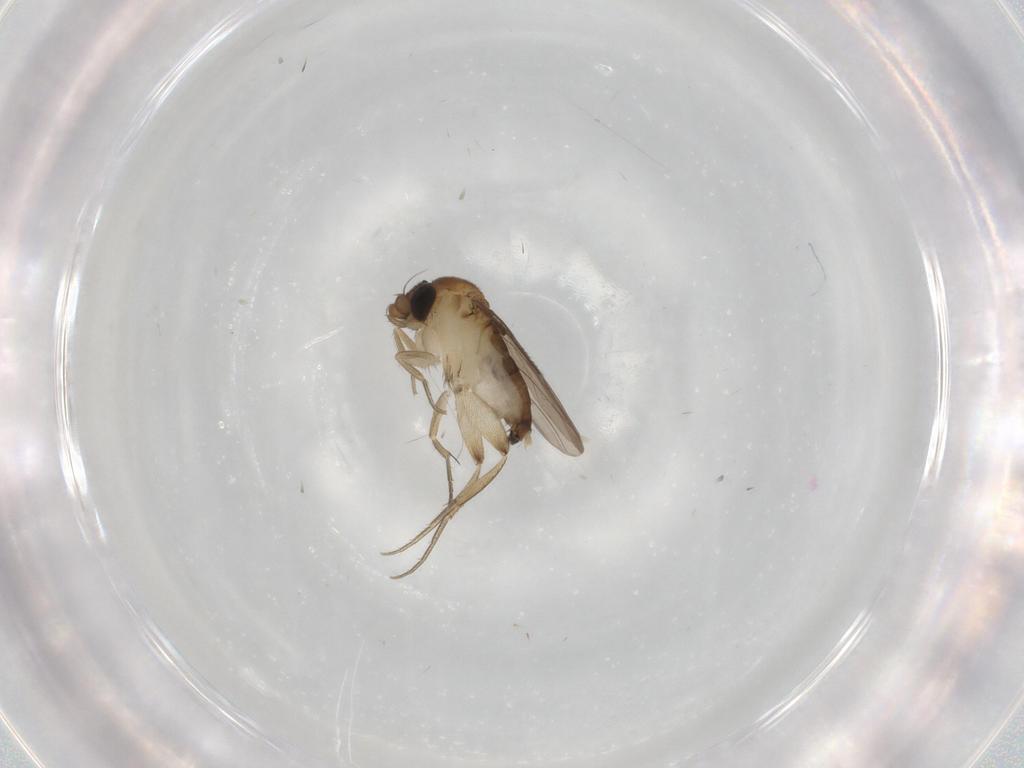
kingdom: Animalia
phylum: Arthropoda
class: Insecta
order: Diptera
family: Phoridae
